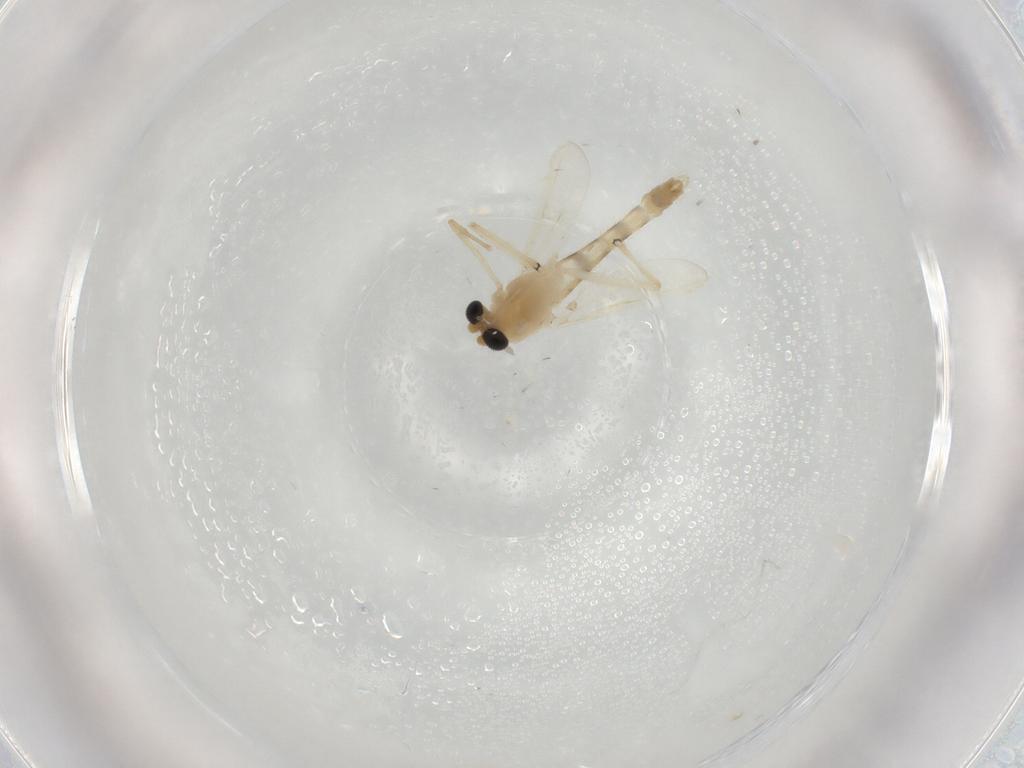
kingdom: Animalia
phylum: Arthropoda
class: Insecta
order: Diptera
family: Chironomidae
